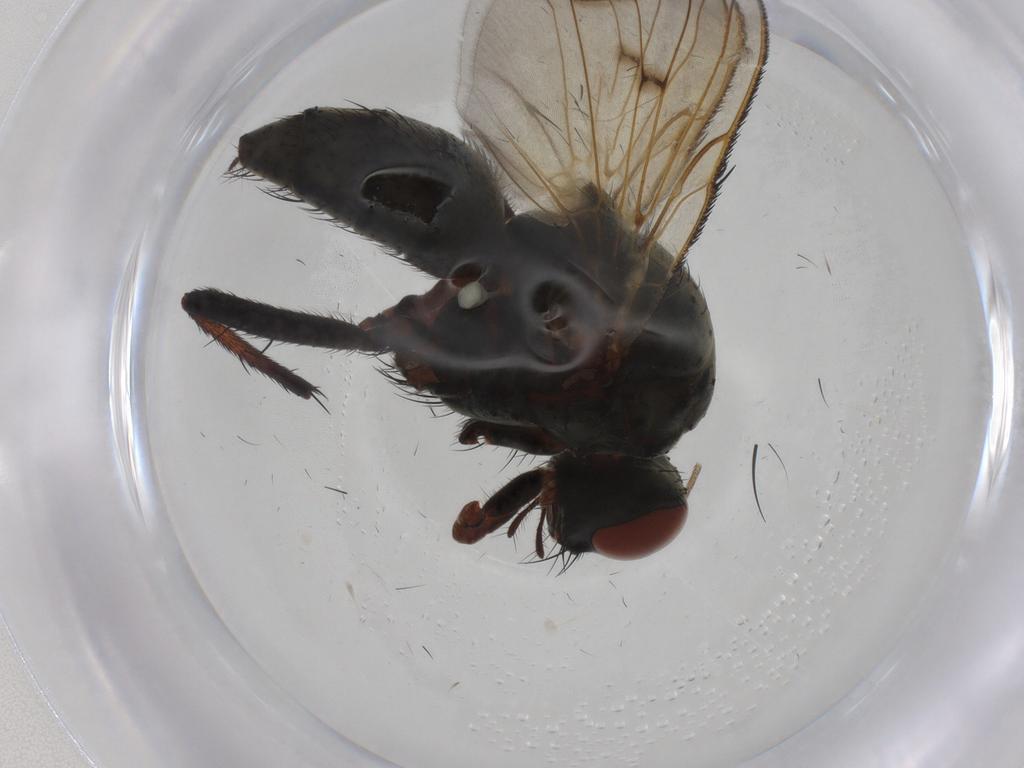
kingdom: Animalia
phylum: Arthropoda
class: Insecta
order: Diptera
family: Anthomyiidae
